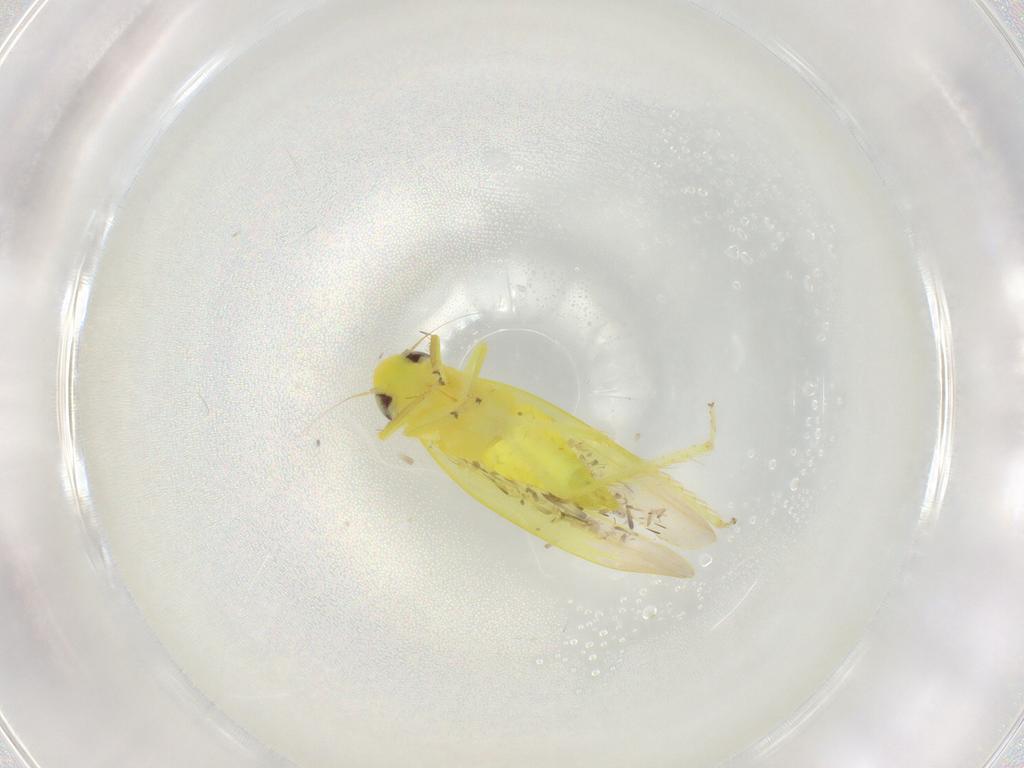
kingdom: Animalia
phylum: Arthropoda
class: Insecta
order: Hemiptera
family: Cicadellidae
